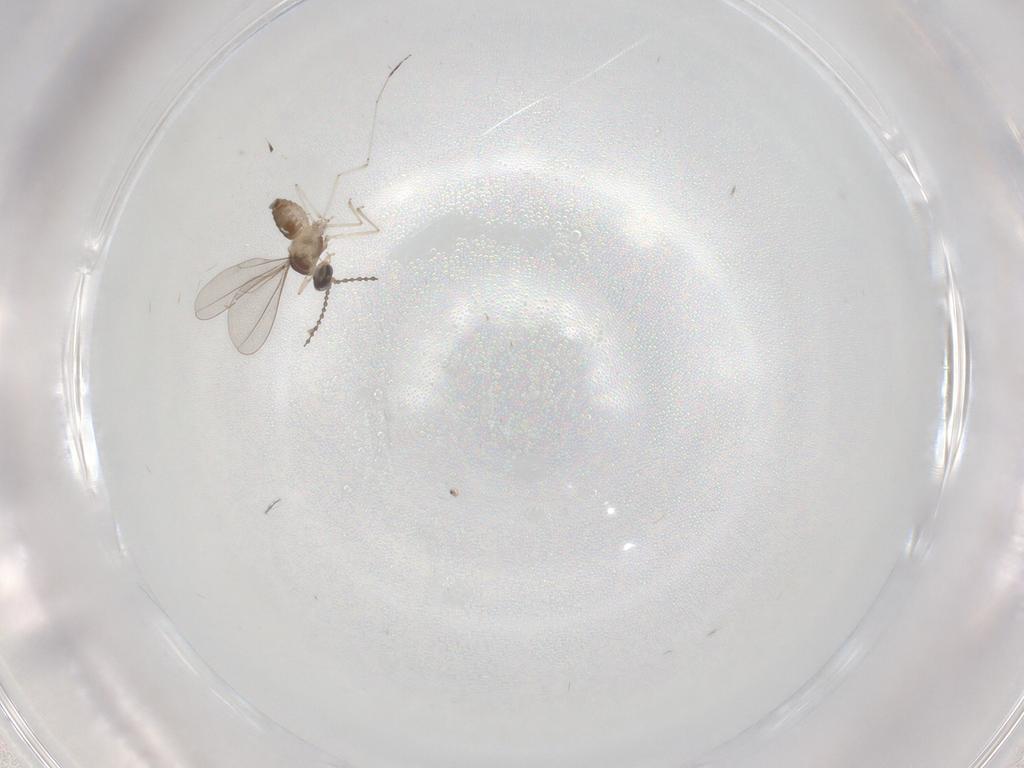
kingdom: Animalia
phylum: Arthropoda
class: Insecta
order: Diptera
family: Cecidomyiidae
